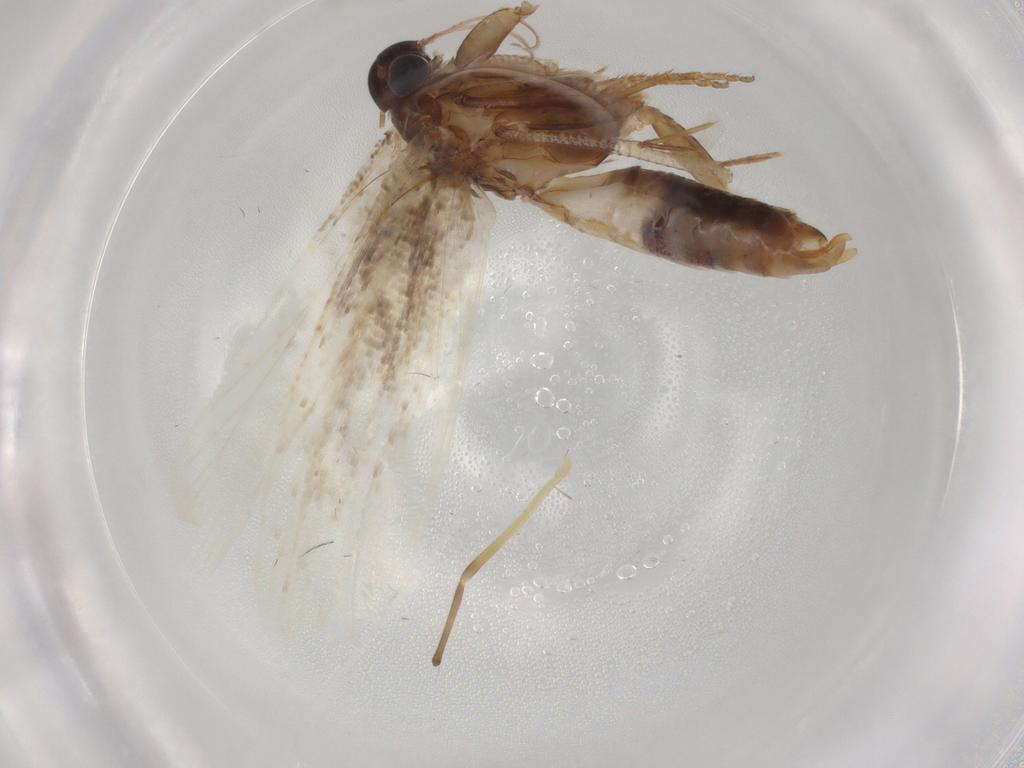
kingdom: Animalia
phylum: Arthropoda
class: Insecta
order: Lepidoptera
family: Gelechiidae
